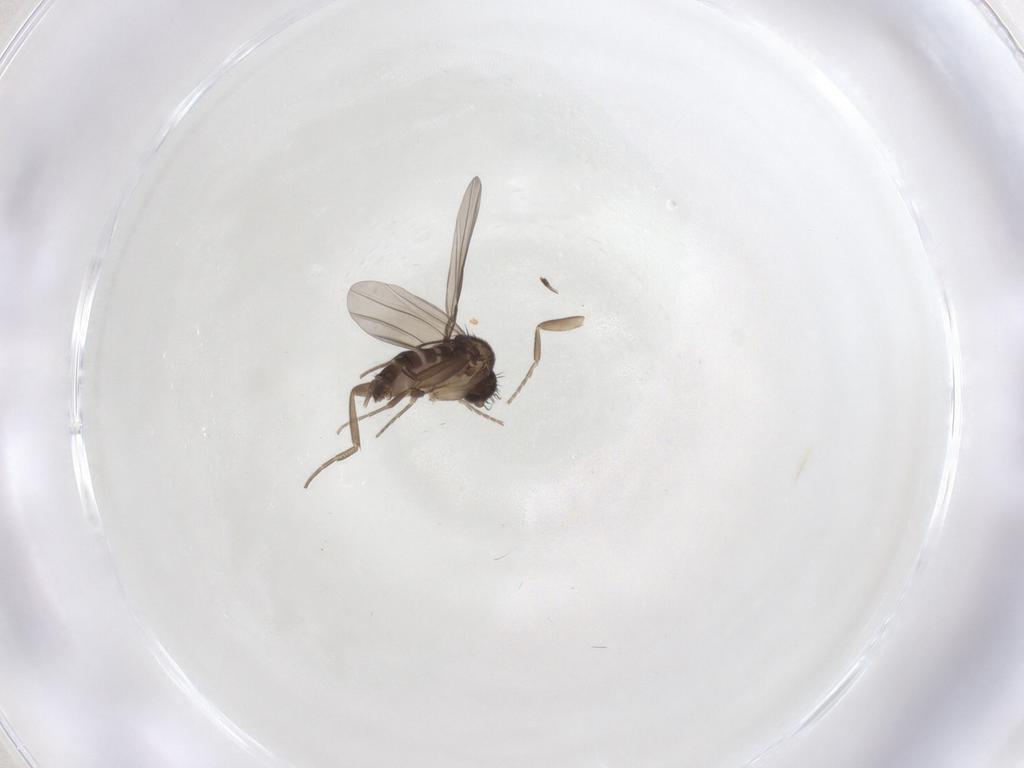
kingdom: Animalia
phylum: Arthropoda
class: Insecta
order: Diptera
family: Phoridae
